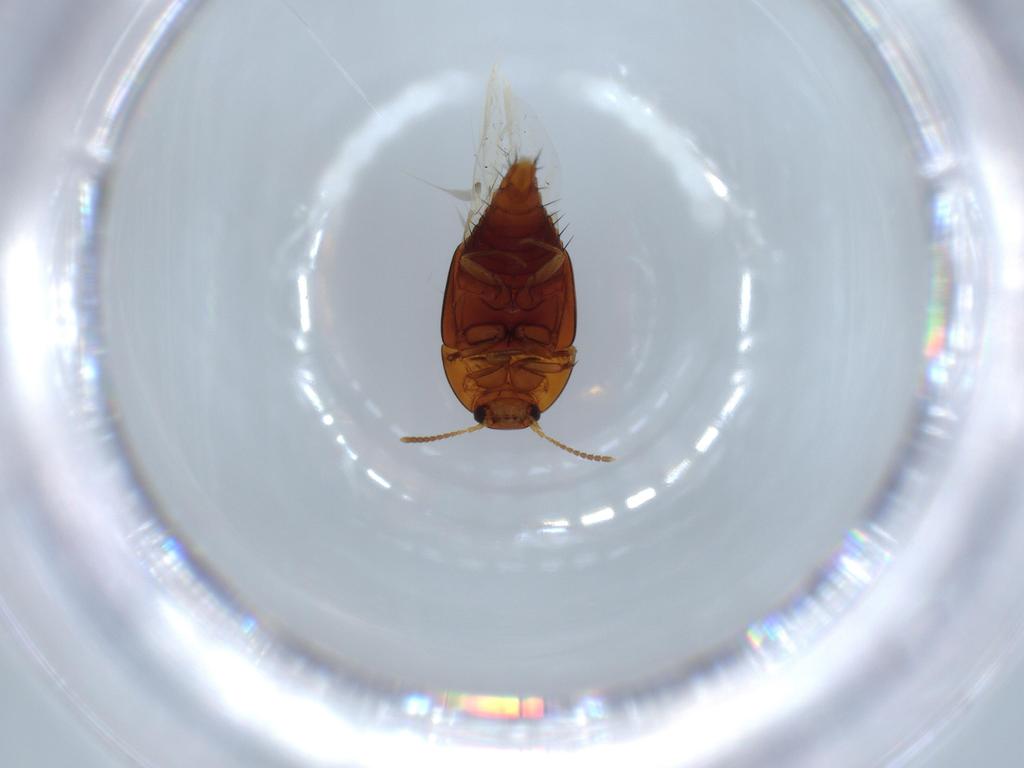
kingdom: Animalia
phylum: Arthropoda
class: Insecta
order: Coleoptera
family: Staphylinidae
